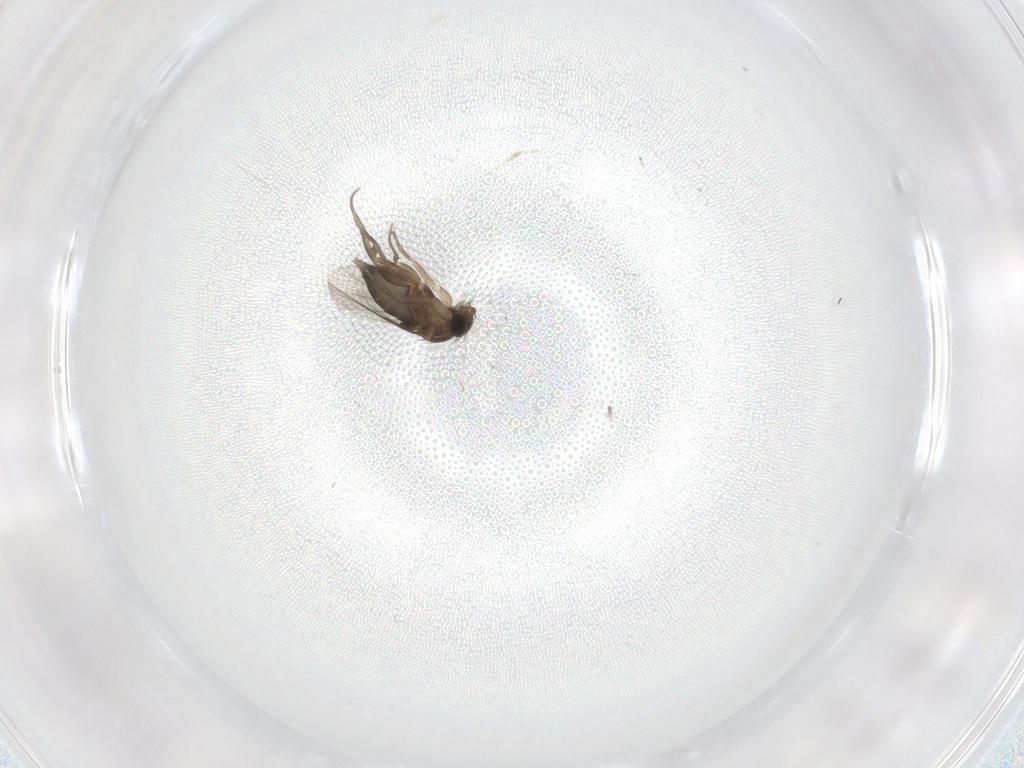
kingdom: Animalia
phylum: Arthropoda
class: Insecta
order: Diptera
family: Phoridae
